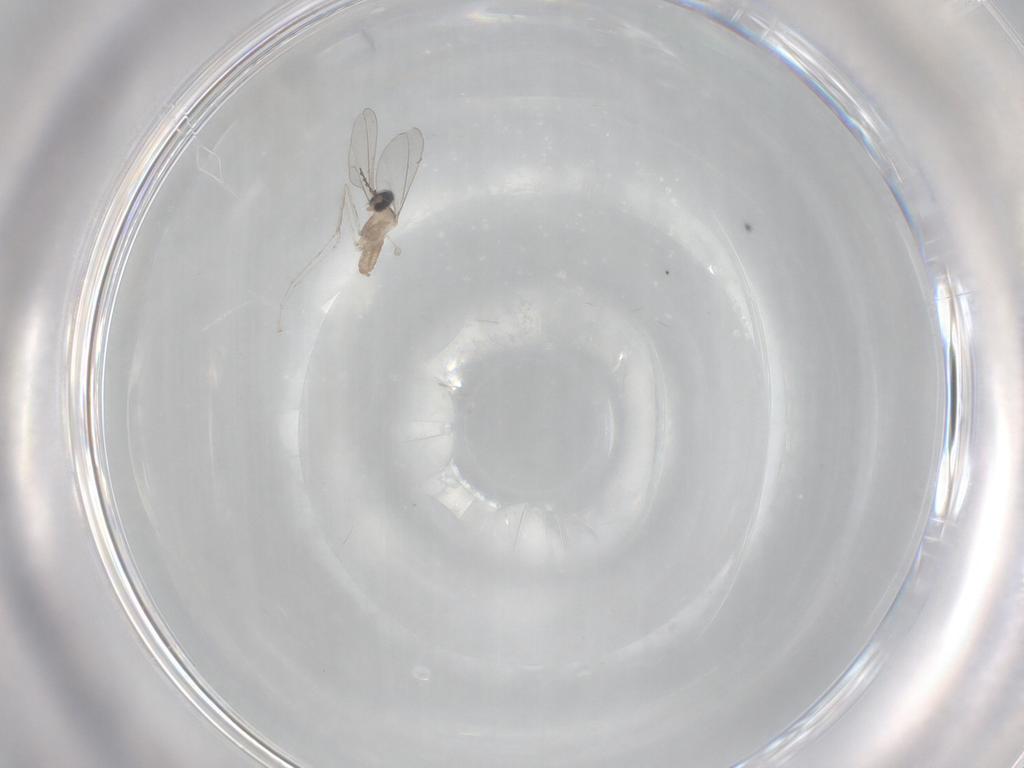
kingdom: Animalia
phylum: Arthropoda
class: Insecta
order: Diptera
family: Cecidomyiidae
